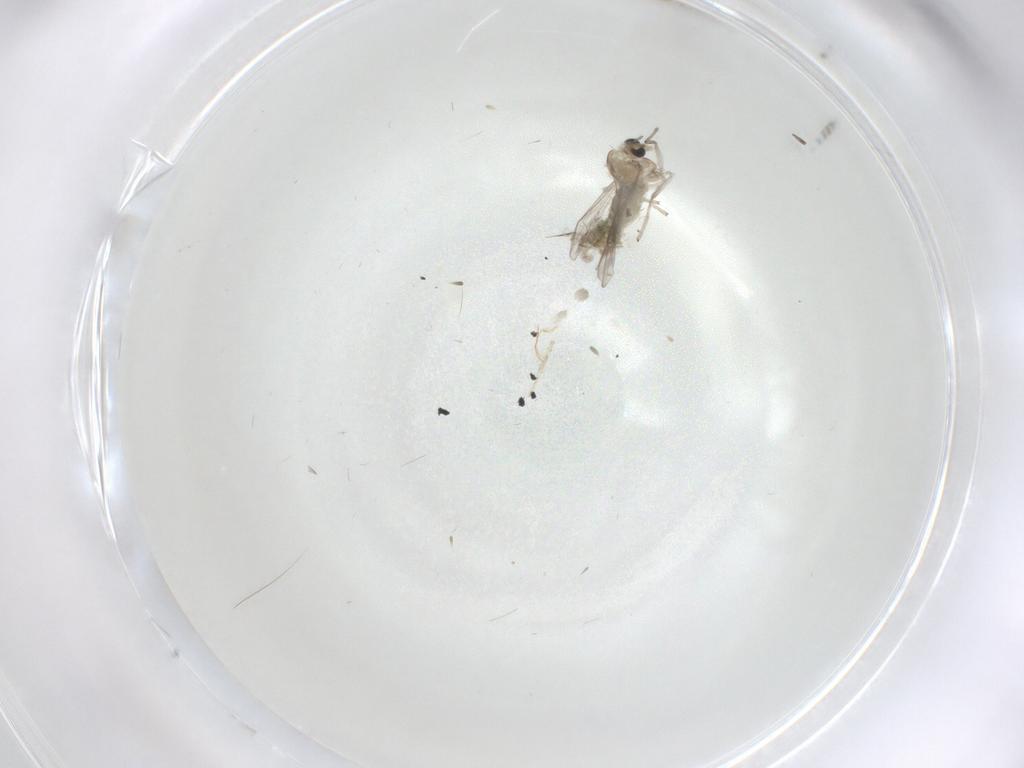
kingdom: Animalia
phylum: Arthropoda
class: Insecta
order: Diptera
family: Chironomidae
